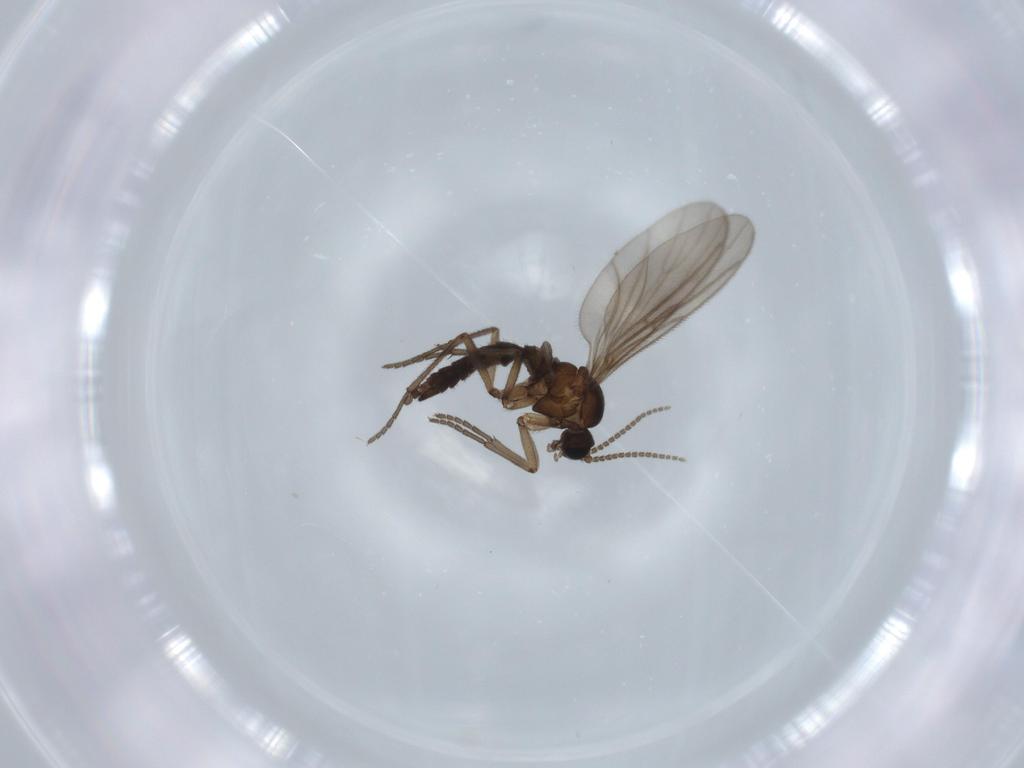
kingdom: Animalia
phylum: Arthropoda
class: Insecta
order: Diptera
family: Sciaridae
